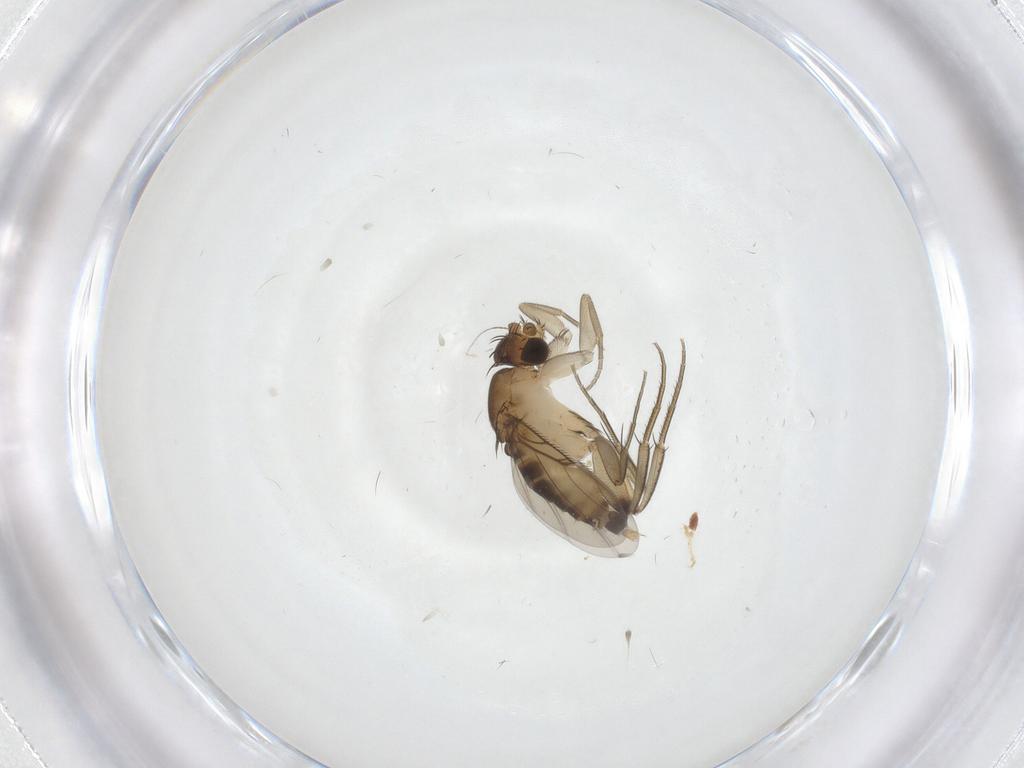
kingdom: Animalia
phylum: Arthropoda
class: Insecta
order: Diptera
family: Phoridae
